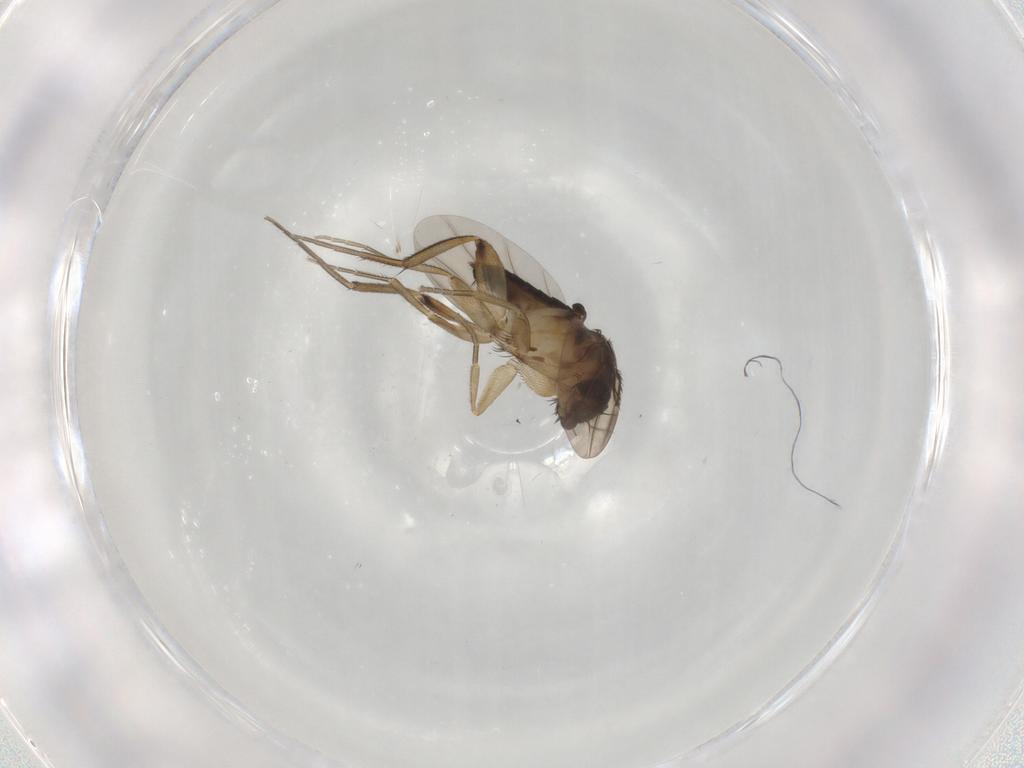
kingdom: Animalia
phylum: Arthropoda
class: Insecta
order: Diptera
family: Phoridae
